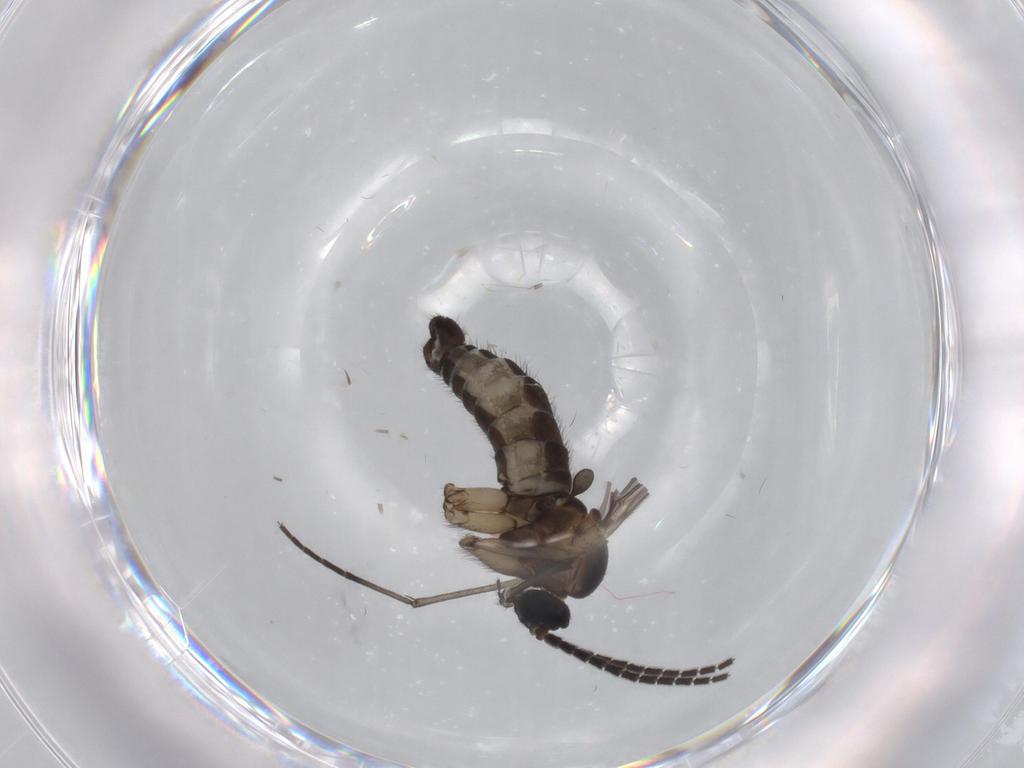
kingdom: Animalia
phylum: Arthropoda
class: Insecta
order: Diptera
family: Sciaridae
